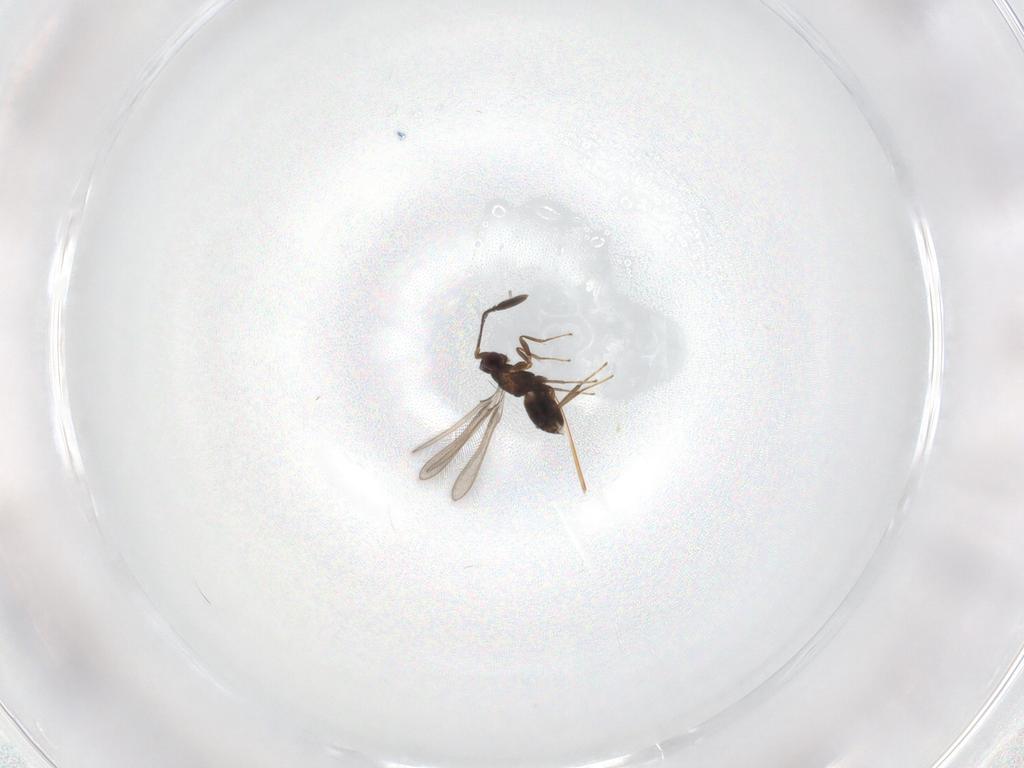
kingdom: Animalia
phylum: Arthropoda
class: Insecta
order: Hymenoptera
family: Mymaridae
